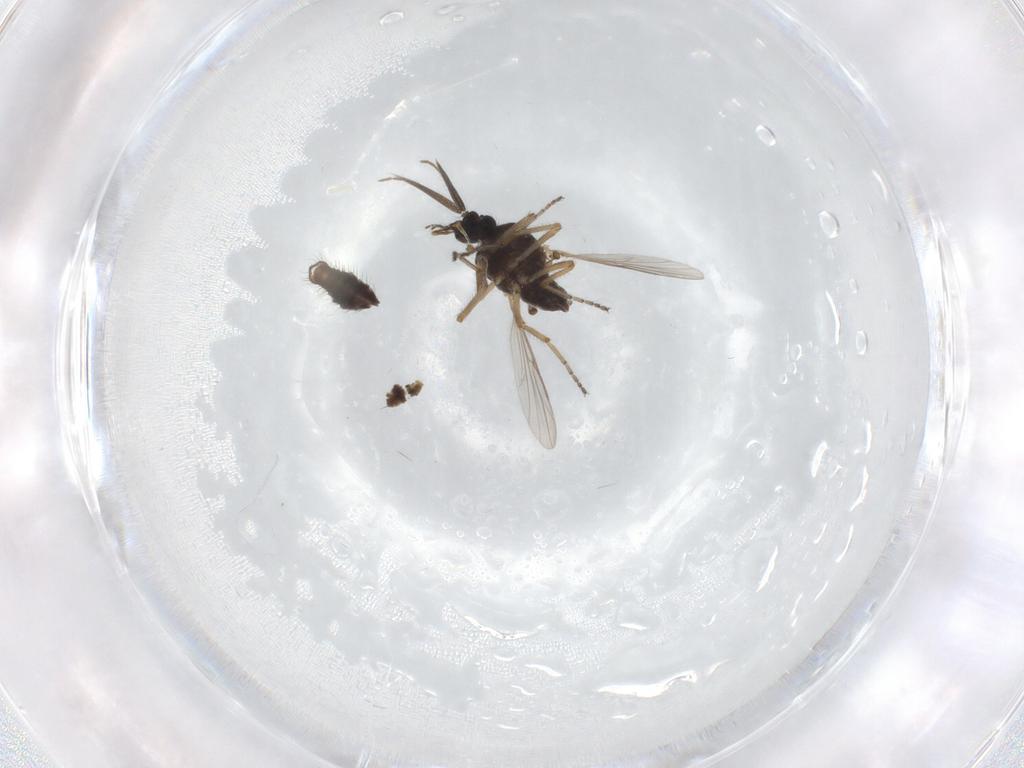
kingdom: Animalia
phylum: Arthropoda
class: Insecta
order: Diptera
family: Ceratopogonidae
